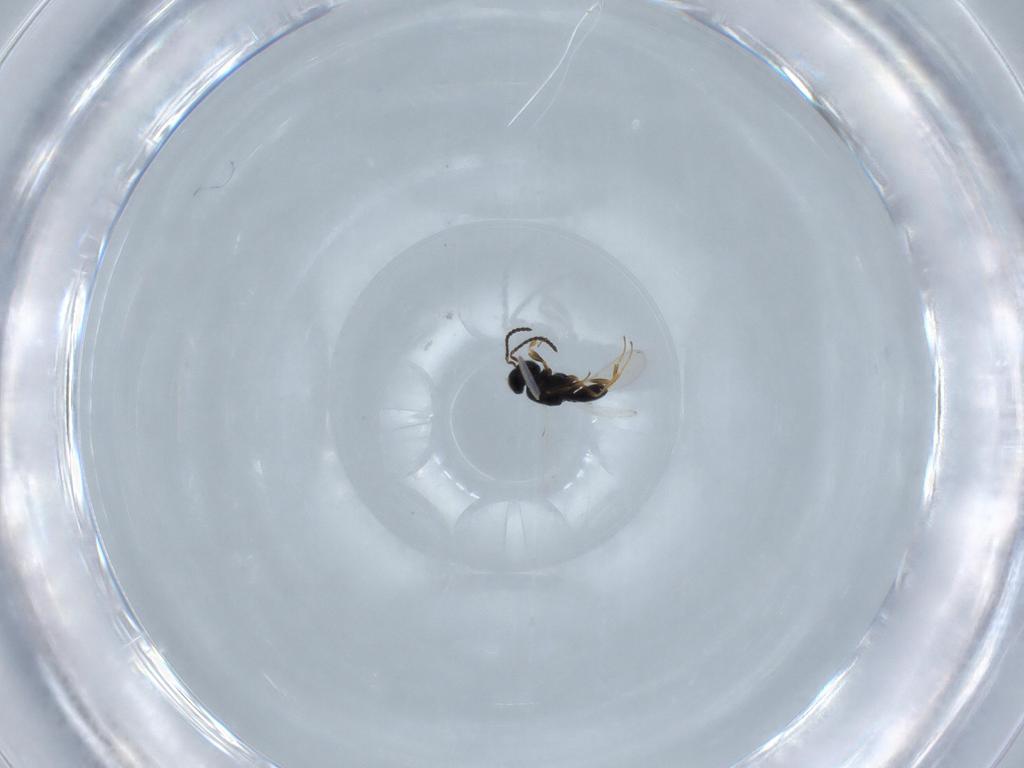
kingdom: Animalia
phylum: Arthropoda
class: Insecta
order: Hymenoptera
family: Scelionidae
